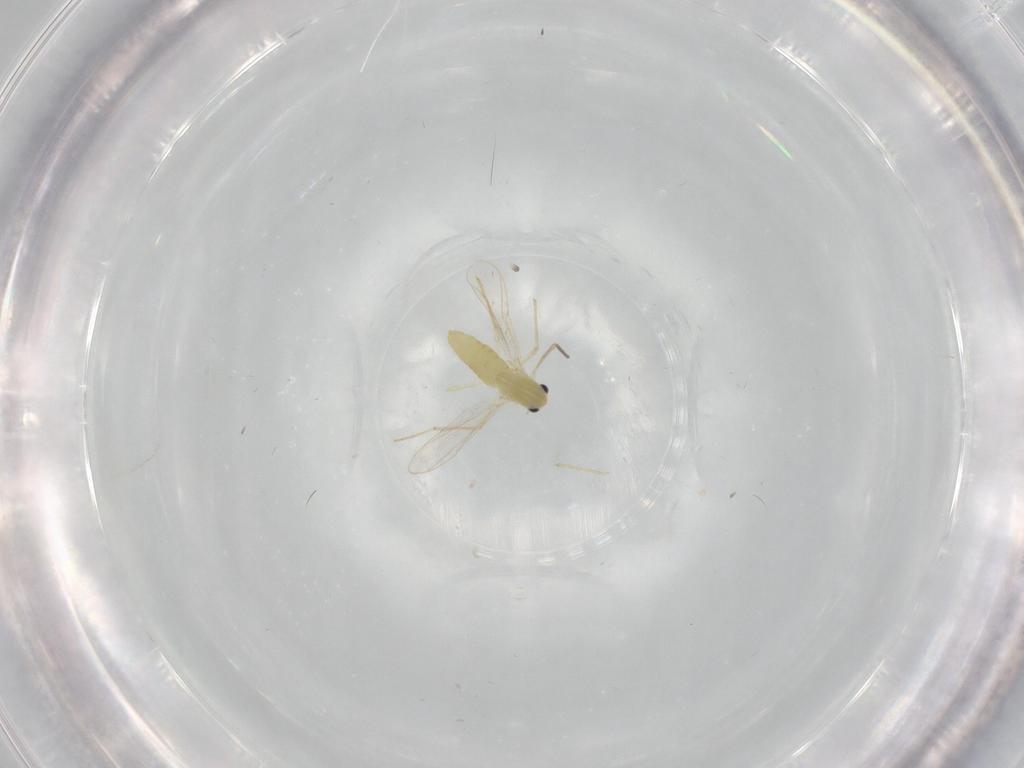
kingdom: Animalia
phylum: Arthropoda
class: Insecta
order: Diptera
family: Chironomidae
